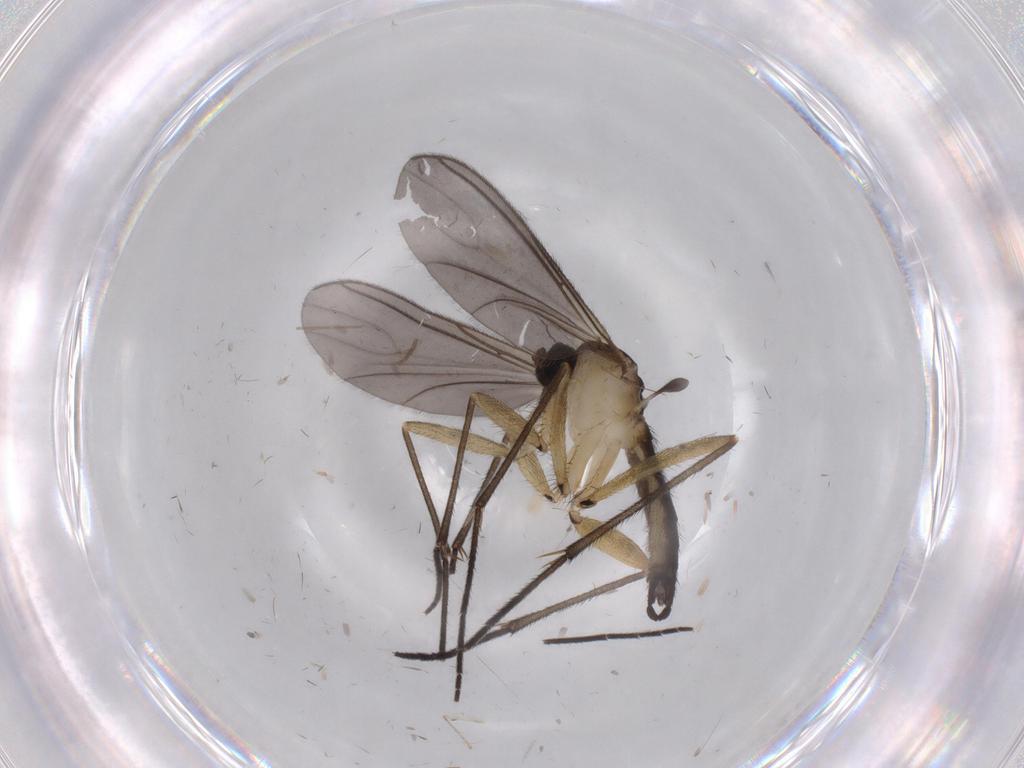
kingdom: Animalia
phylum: Arthropoda
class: Insecta
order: Diptera
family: Sciaridae
